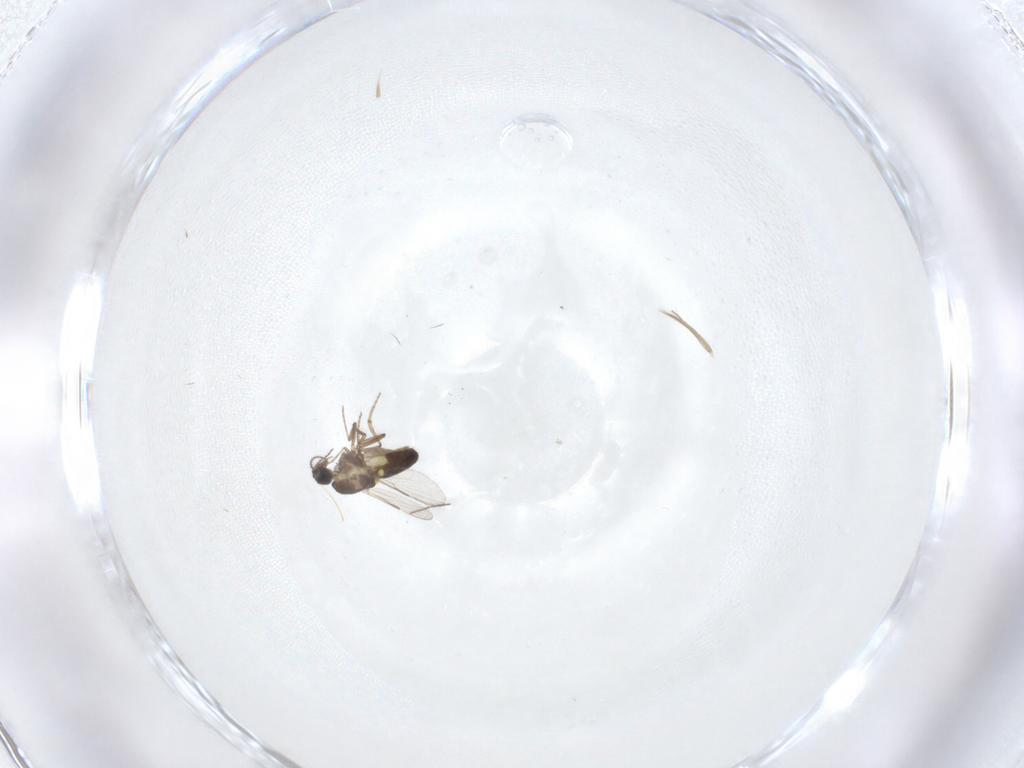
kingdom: Animalia
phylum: Arthropoda
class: Insecta
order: Diptera
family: Ceratopogonidae
